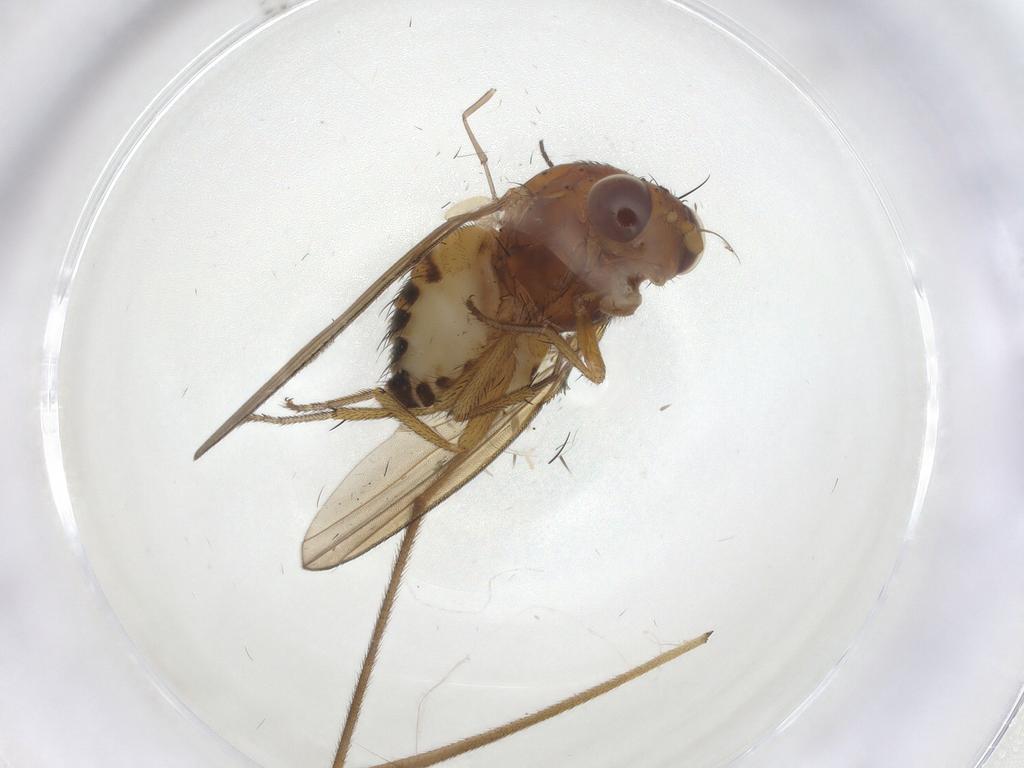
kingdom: Animalia
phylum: Arthropoda
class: Insecta
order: Diptera
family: Limoniidae
